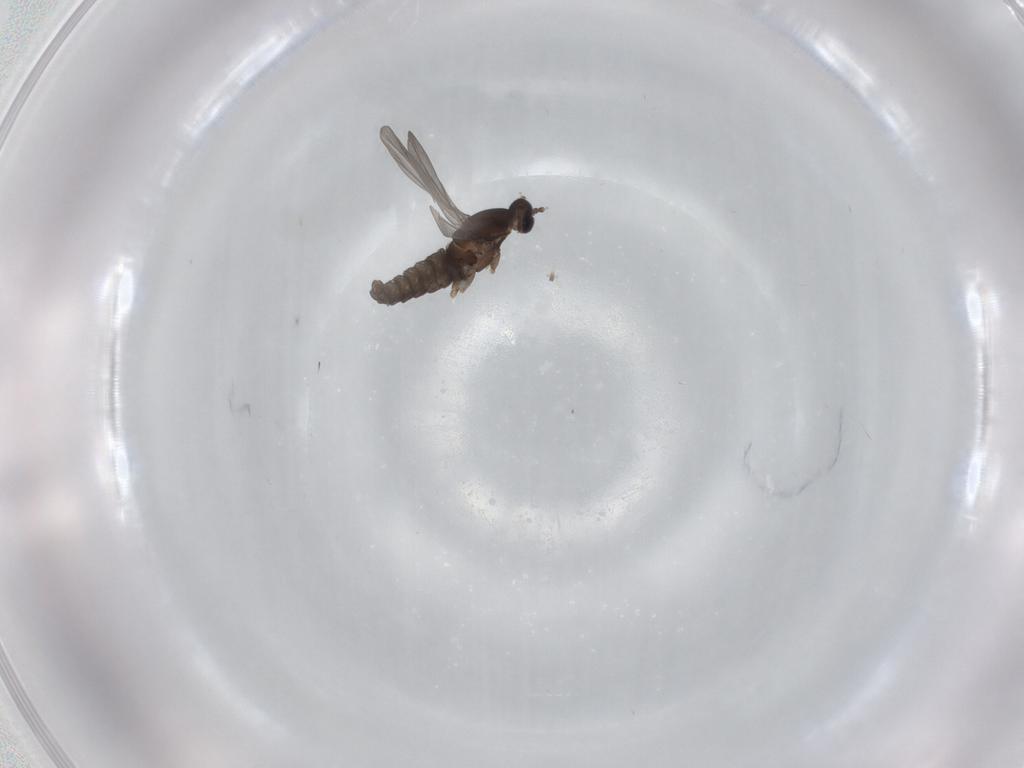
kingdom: Animalia
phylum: Arthropoda
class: Insecta
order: Diptera
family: Cecidomyiidae
